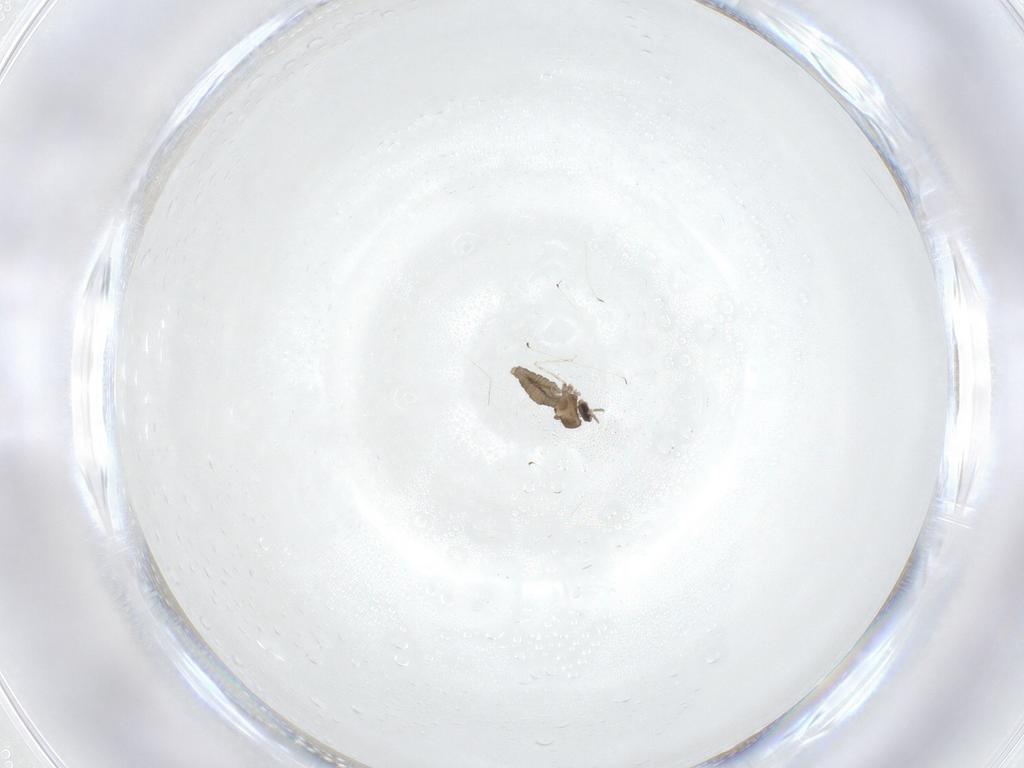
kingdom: Animalia
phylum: Arthropoda
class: Insecta
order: Diptera
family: Cecidomyiidae
